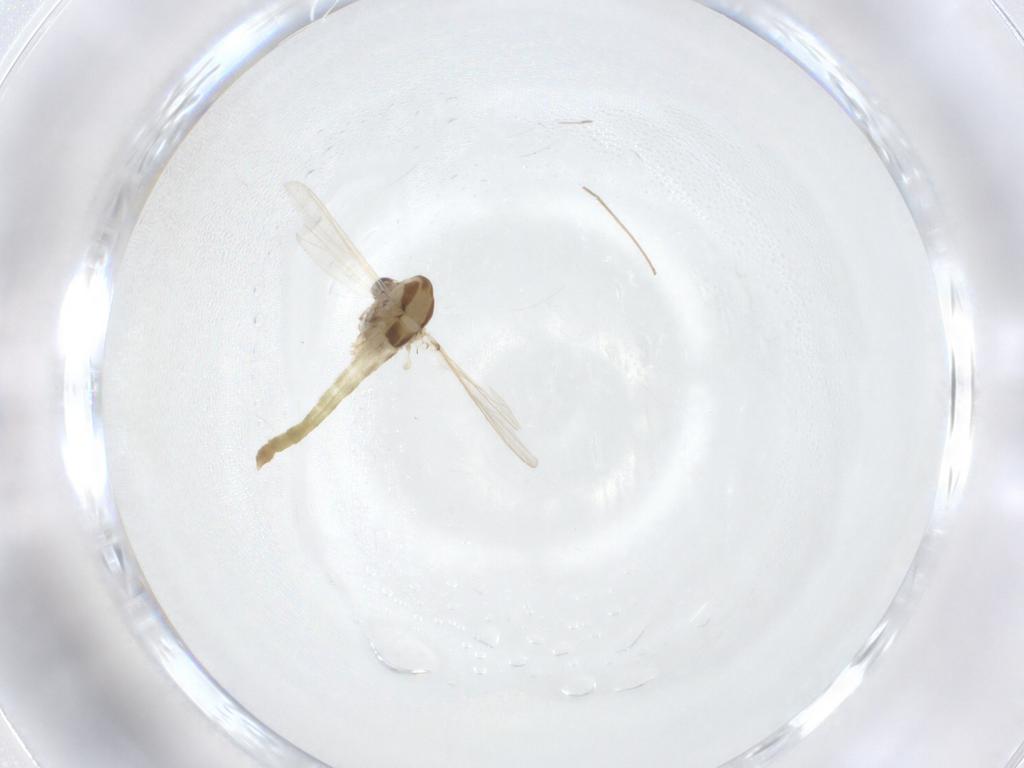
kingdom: Animalia
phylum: Arthropoda
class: Insecta
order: Diptera
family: Chironomidae
